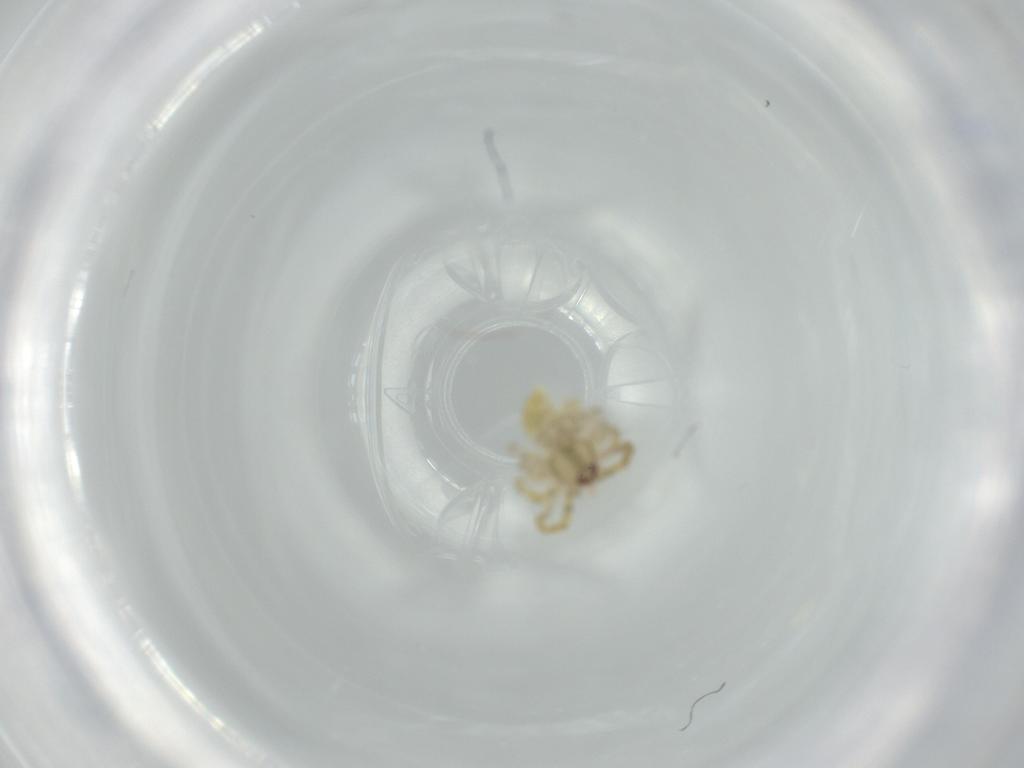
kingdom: Animalia
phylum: Arthropoda
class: Arachnida
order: Araneae
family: Theridiidae
